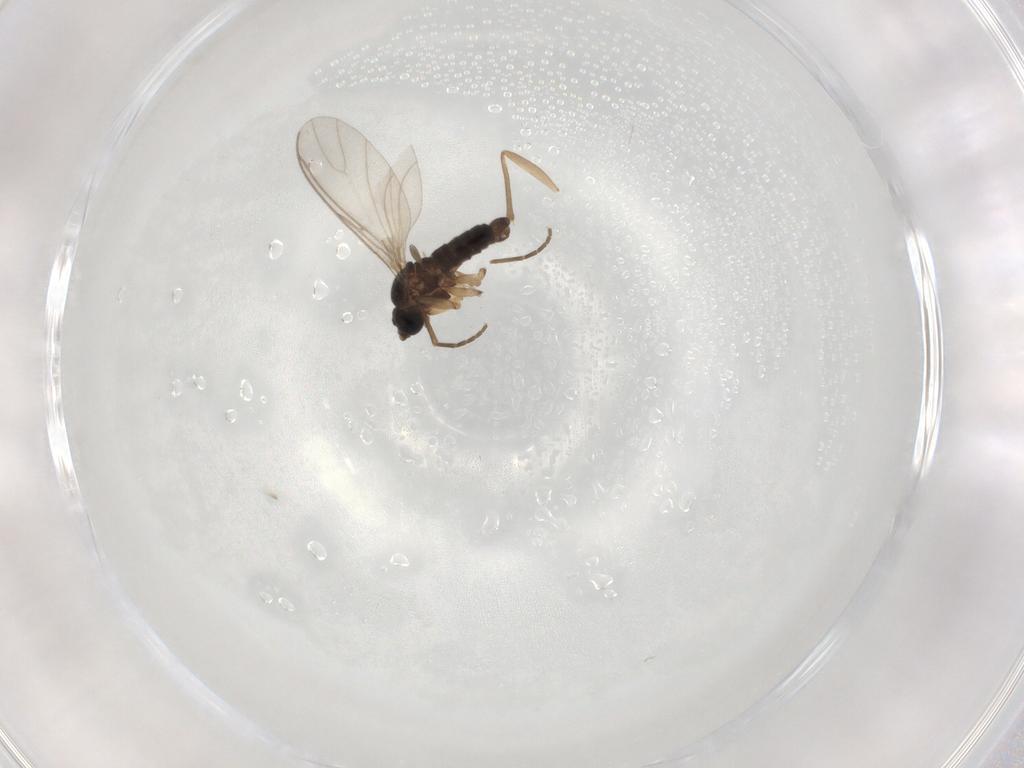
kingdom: Animalia
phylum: Arthropoda
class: Insecta
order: Diptera
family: Sciaridae
